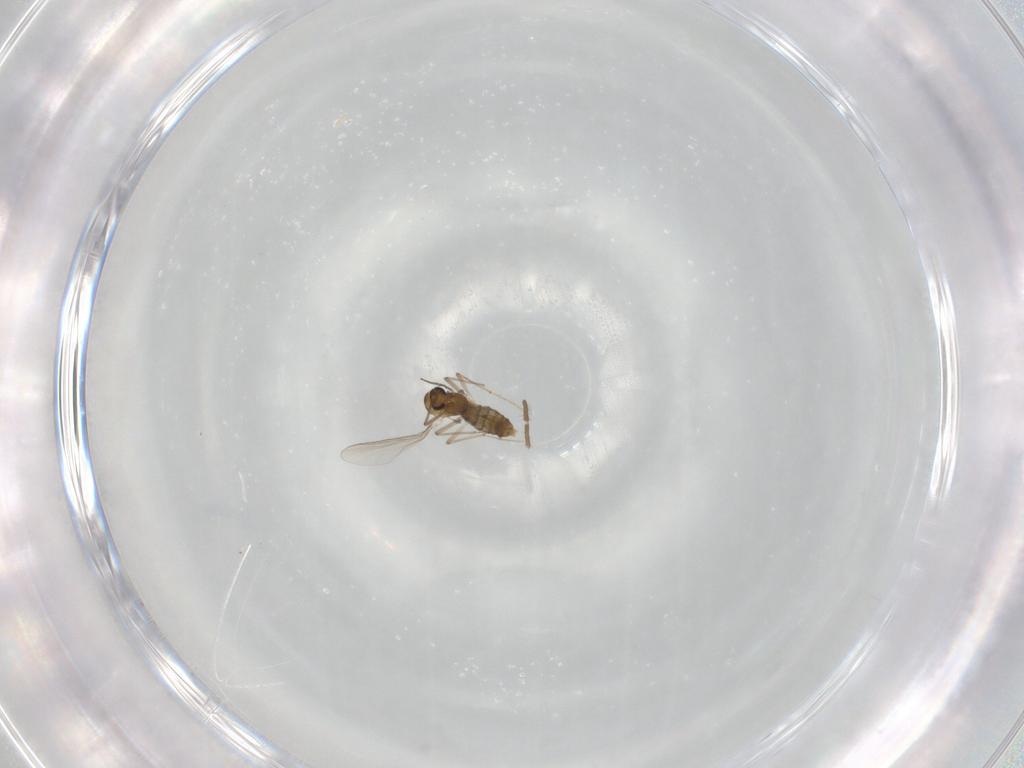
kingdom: Animalia
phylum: Arthropoda
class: Insecta
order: Diptera
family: Chironomidae
